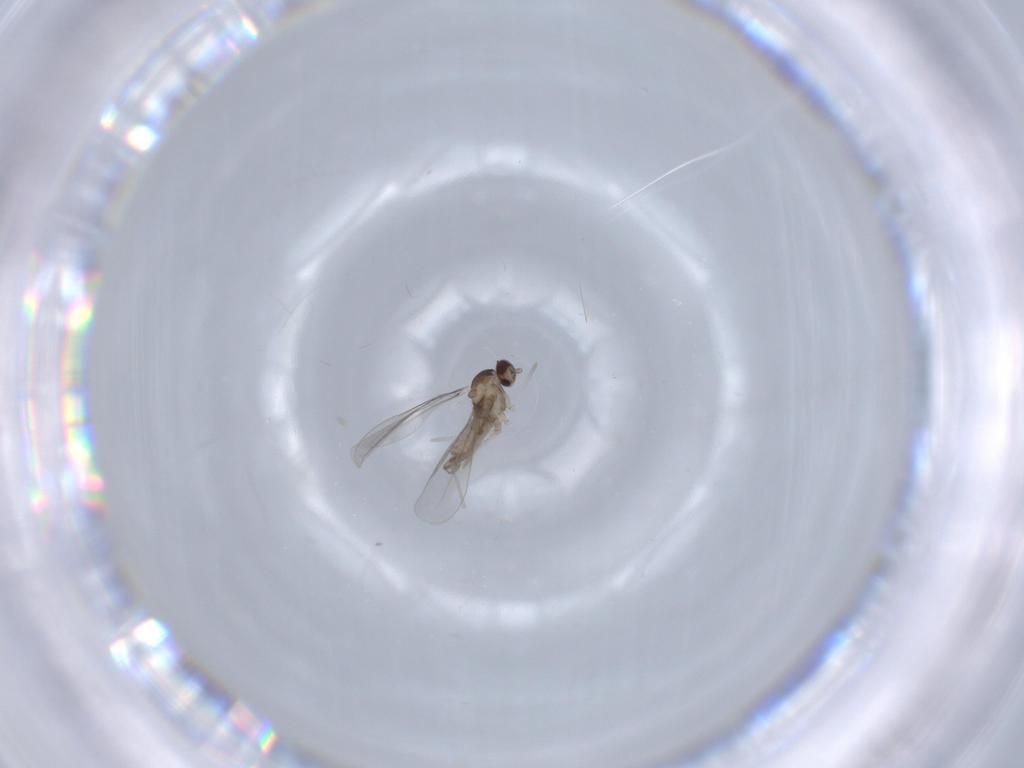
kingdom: Animalia
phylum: Arthropoda
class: Insecta
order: Diptera
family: Cecidomyiidae
